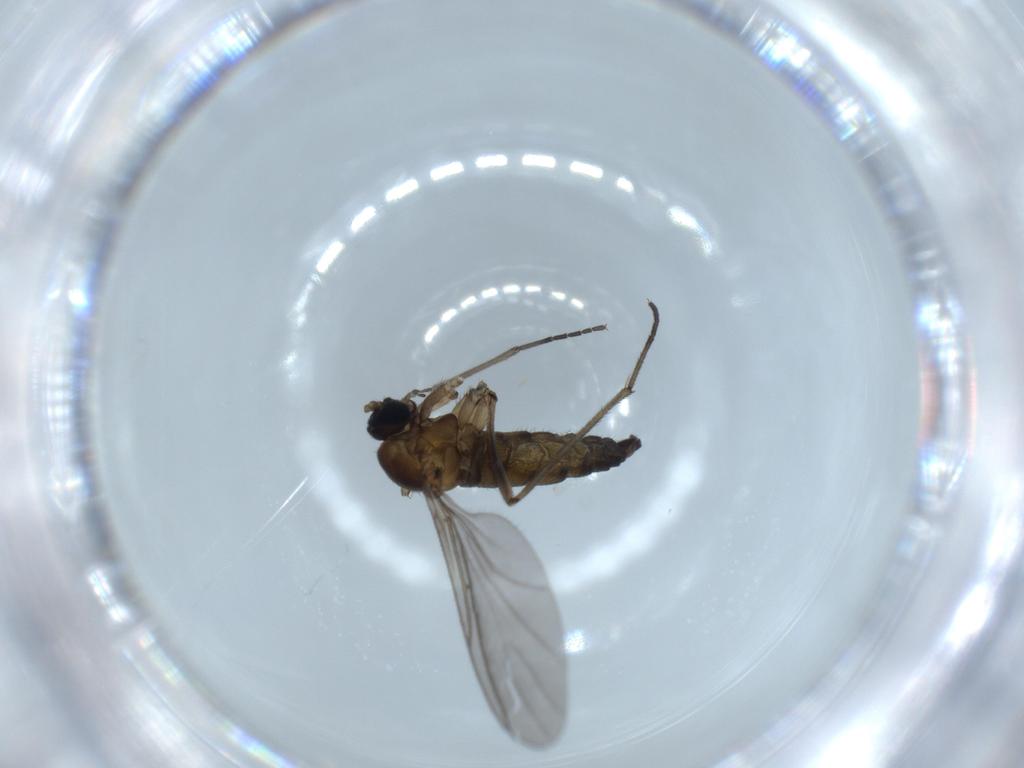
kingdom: Animalia
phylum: Arthropoda
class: Insecta
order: Diptera
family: Sciaridae
